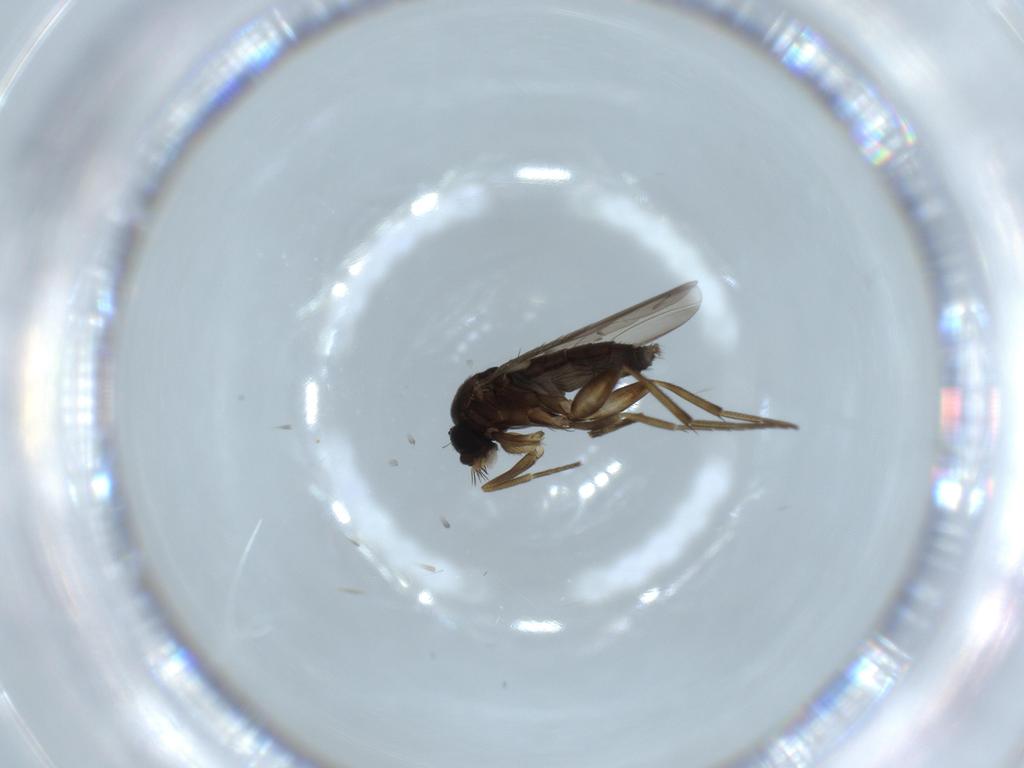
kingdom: Animalia
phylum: Arthropoda
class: Insecta
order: Diptera
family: Phoridae
